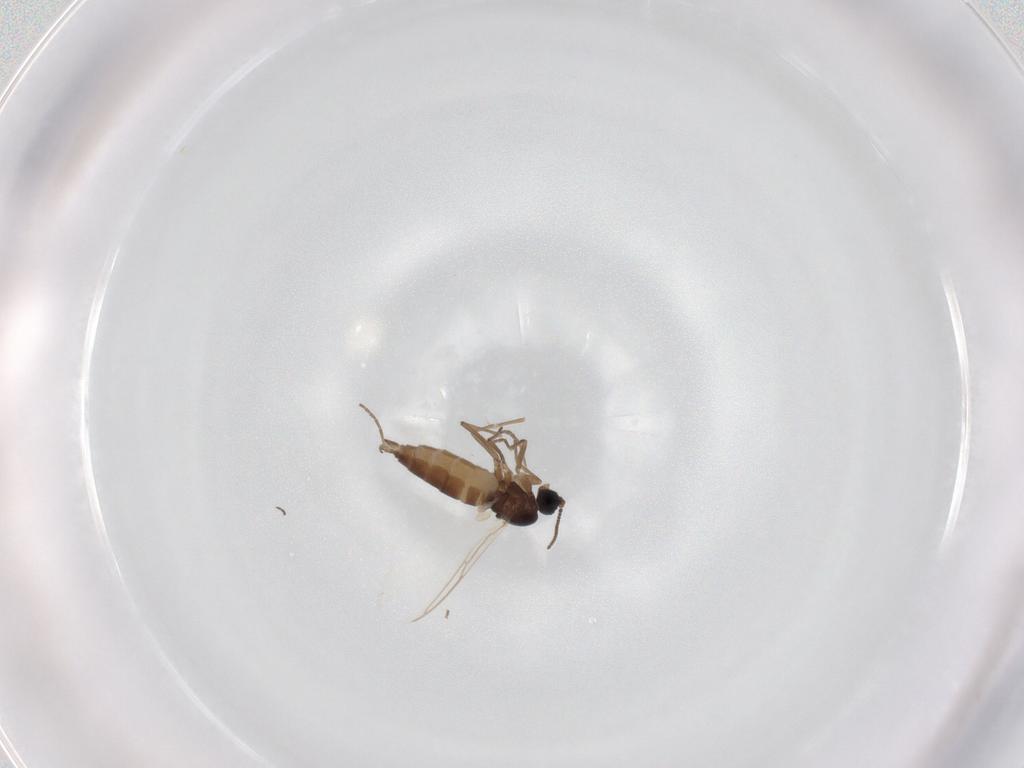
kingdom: Animalia
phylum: Arthropoda
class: Insecta
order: Diptera
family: Sciaridae
